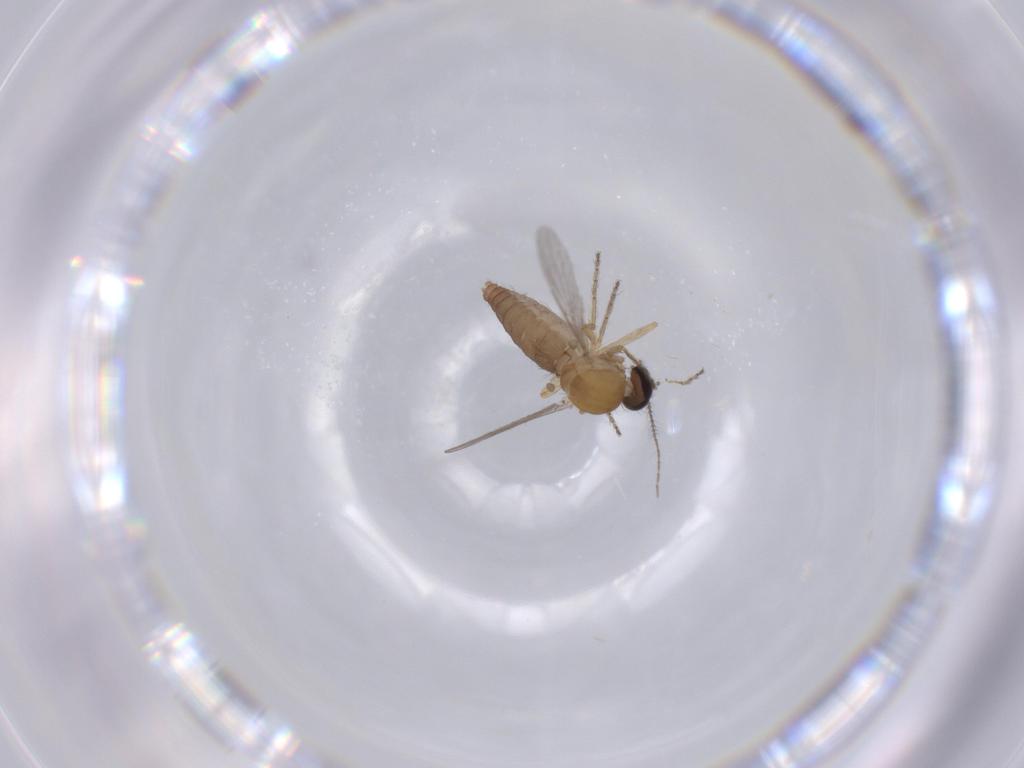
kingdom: Animalia
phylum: Arthropoda
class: Insecta
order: Diptera
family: Ceratopogonidae
